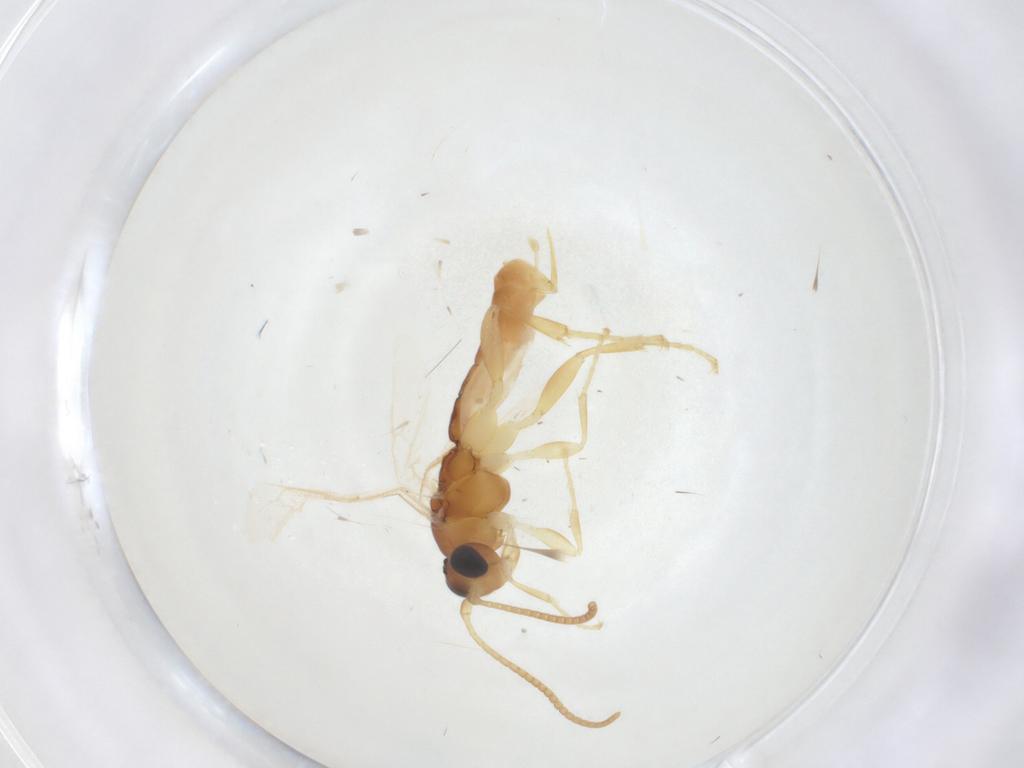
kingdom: Animalia
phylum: Arthropoda
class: Insecta
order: Hymenoptera
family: Ichneumonidae
